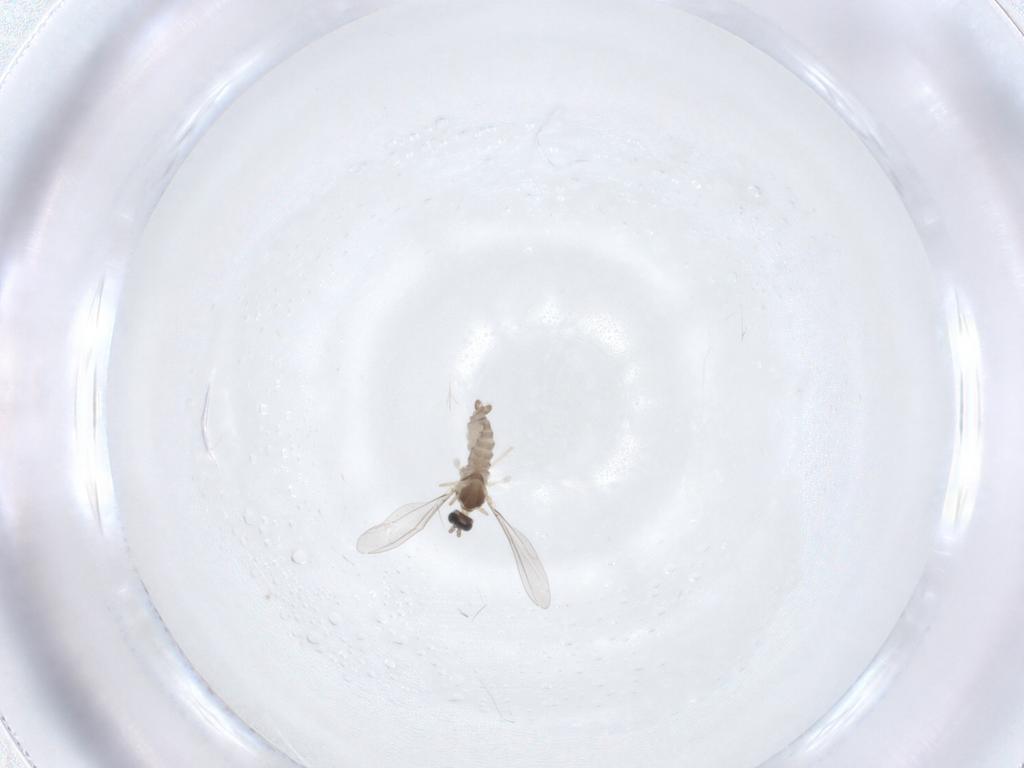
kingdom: Animalia
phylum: Arthropoda
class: Insecta
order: Diptera
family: Cecidomyiidae
